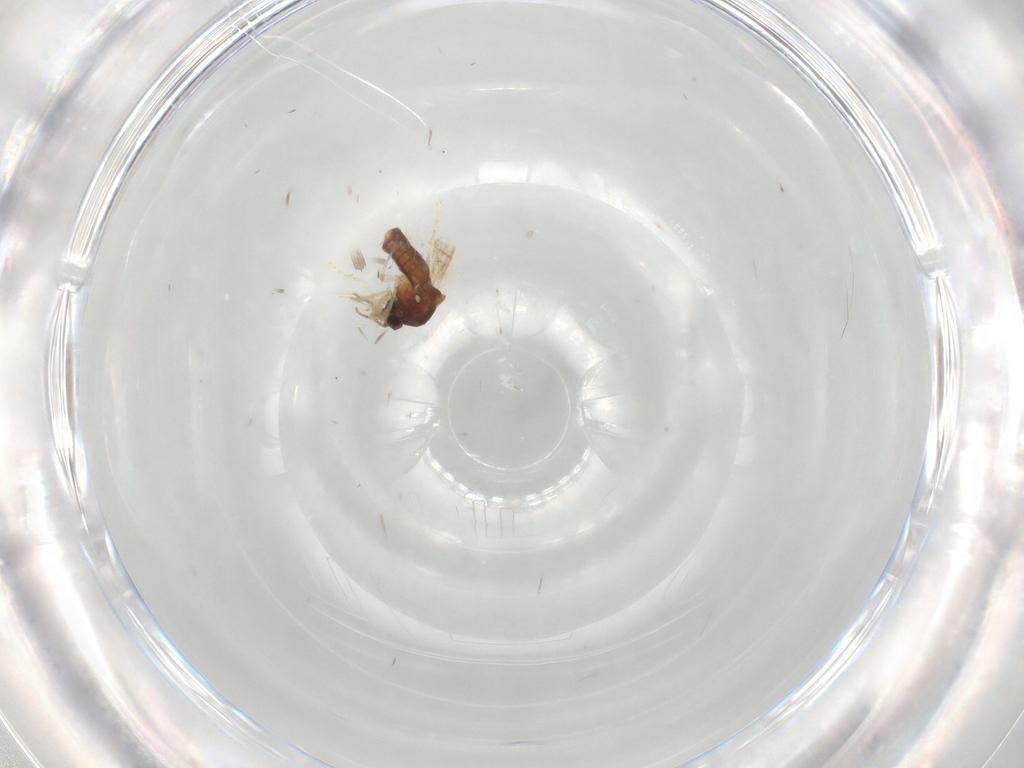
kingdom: Animalia
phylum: Arthropoda
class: Insecta
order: Diptera
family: Ceratopogonidae
